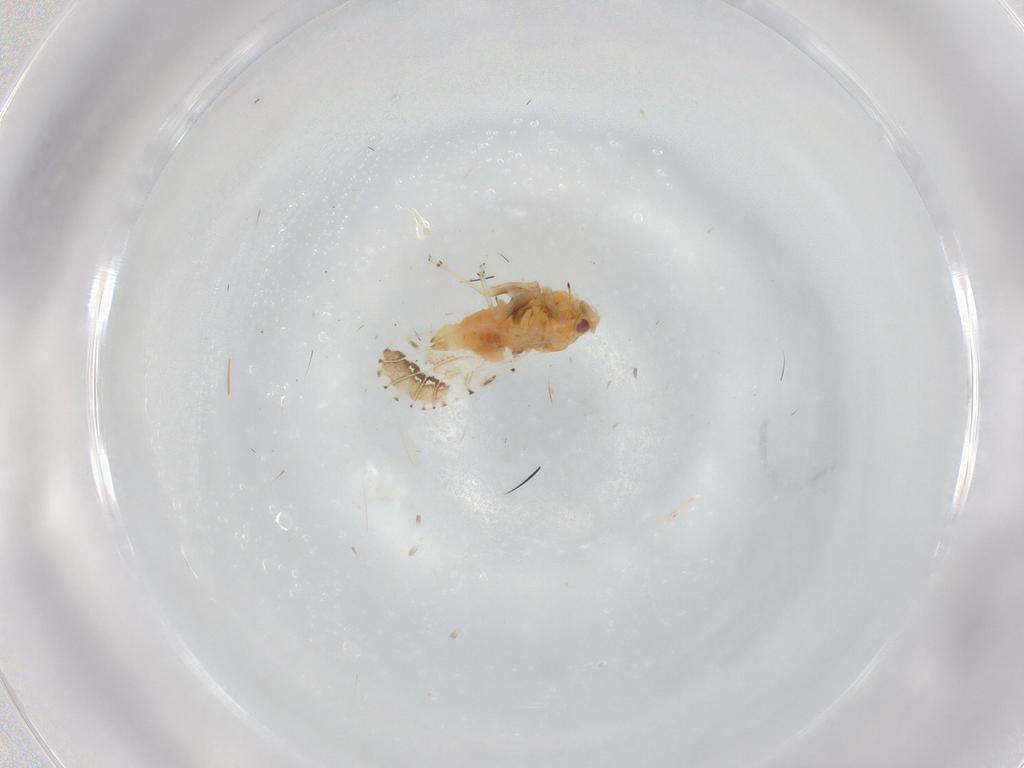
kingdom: Animalia
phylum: Arthropoda
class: Insecta
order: Hemiptera
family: Psyllidae
